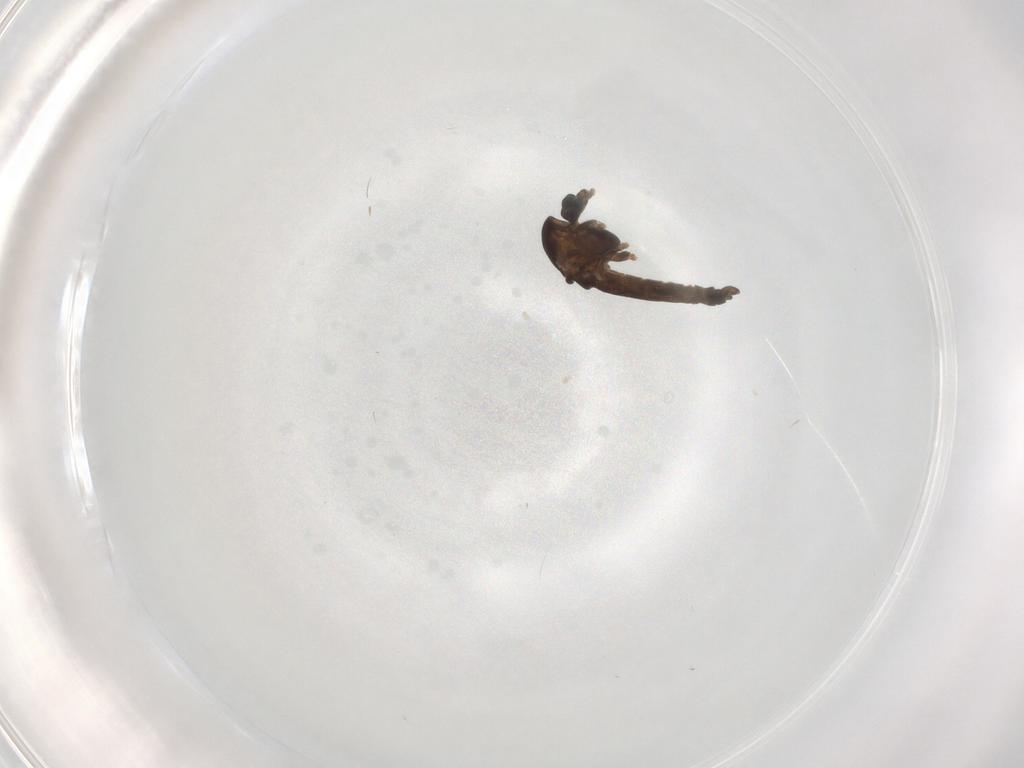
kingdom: Animalia
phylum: Arthropoda
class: Insecta
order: Diptera
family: Chironomidae
